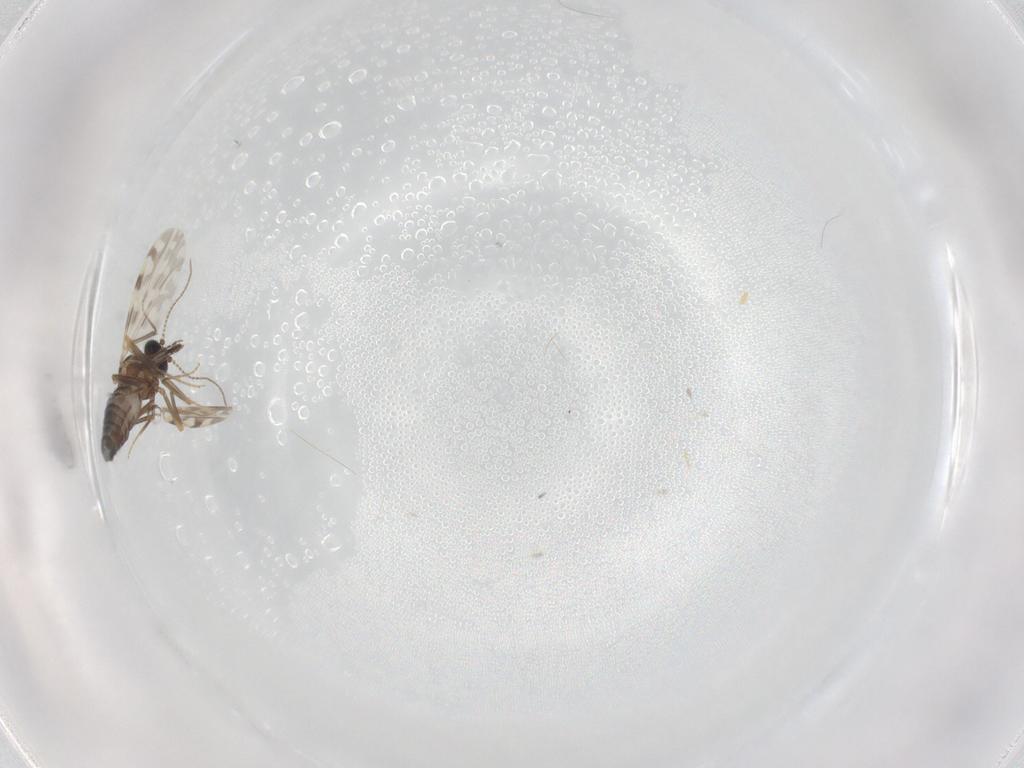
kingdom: Animalia
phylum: Arthropoda
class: Insecta
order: Diptera
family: Ceratopogonidae
